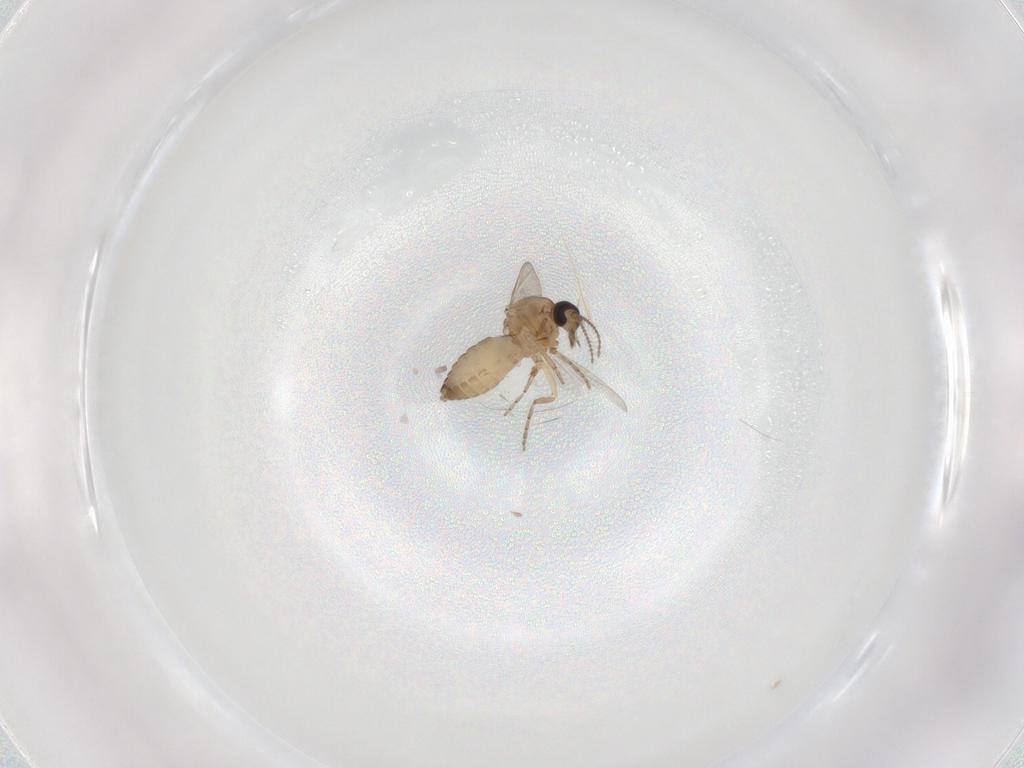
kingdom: Animalia
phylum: Arthropoda
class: Insecta
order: Diptera
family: Ceratopogonidae
